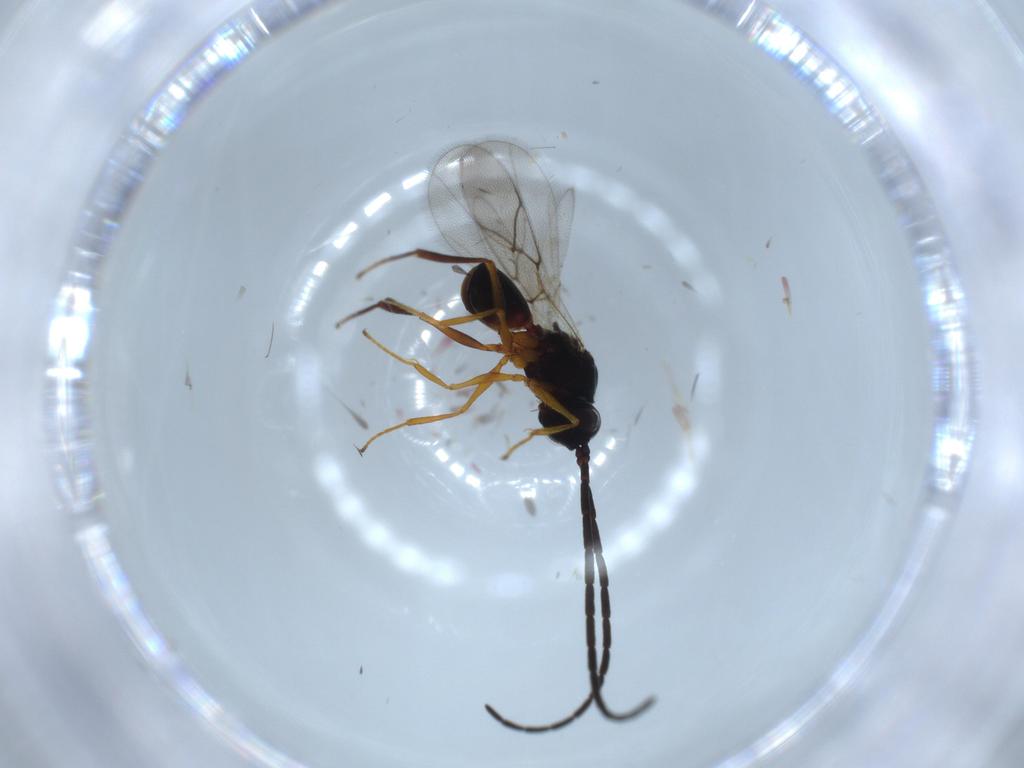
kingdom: Animalia
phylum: Arthropoda
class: Insecta
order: Hymenoptera
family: Figitidae
